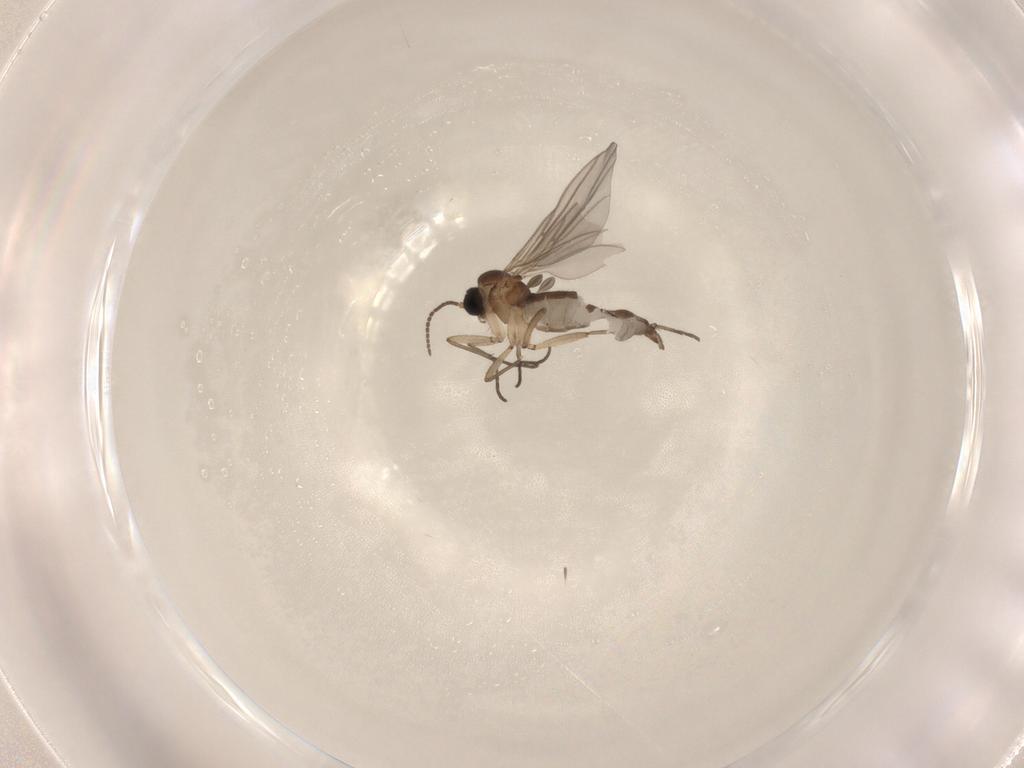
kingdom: Animalia
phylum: Arthropoda
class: Insecta
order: Diptera
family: Sciaridae
